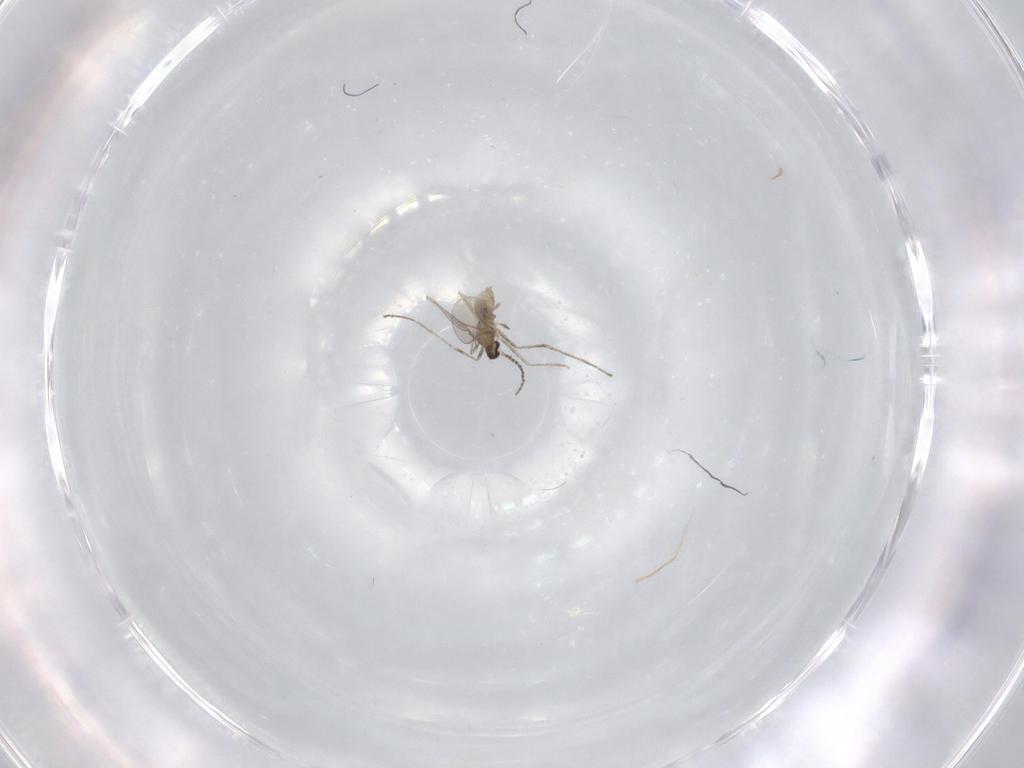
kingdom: Animalia
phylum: Arthropoda
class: Insecta
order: Diptera
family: Cecidomyiidae
